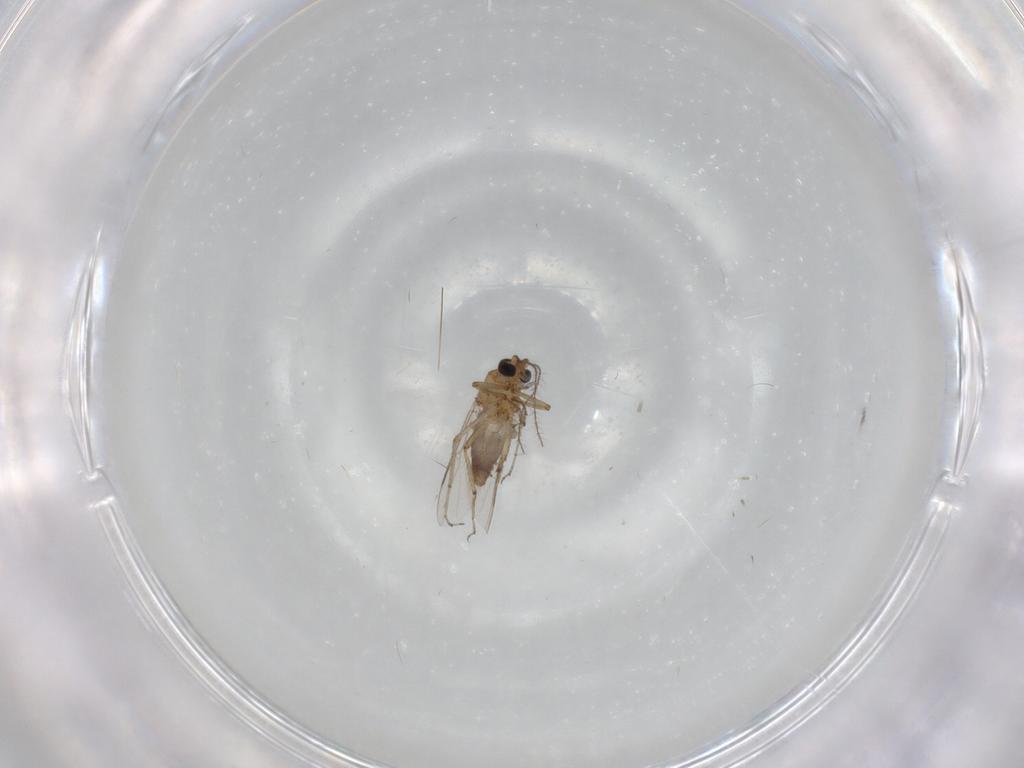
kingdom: Animalia
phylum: Arthropoda
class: Insecta
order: Diptera
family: Dolichopodidae
